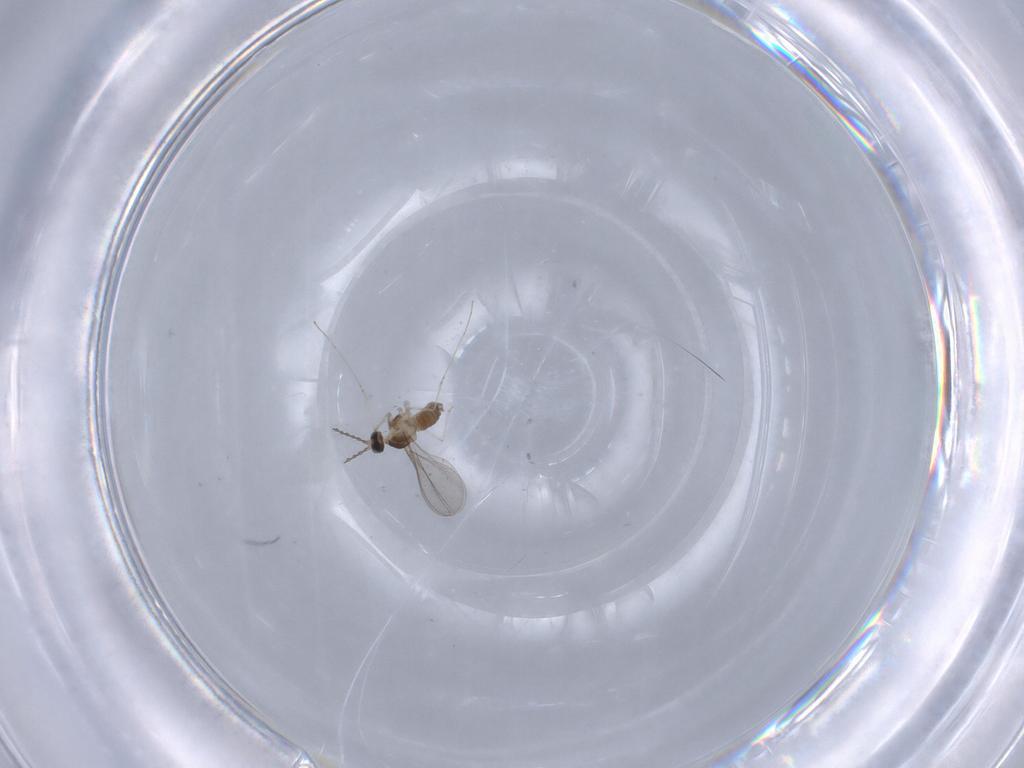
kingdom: Animalia
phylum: Arthropoda
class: Insecta
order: Diptera
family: Cecidomyiidae
